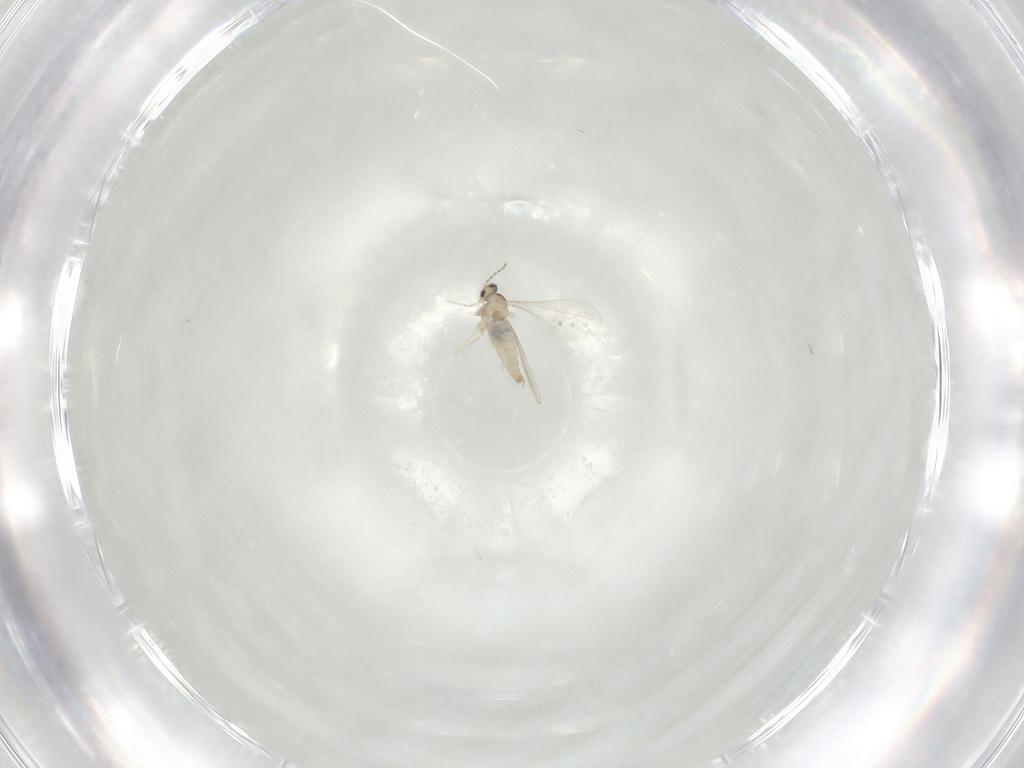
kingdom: Animalia
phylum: Arthropoda
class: Insecta
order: Diptera
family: Cecidomyiidae
